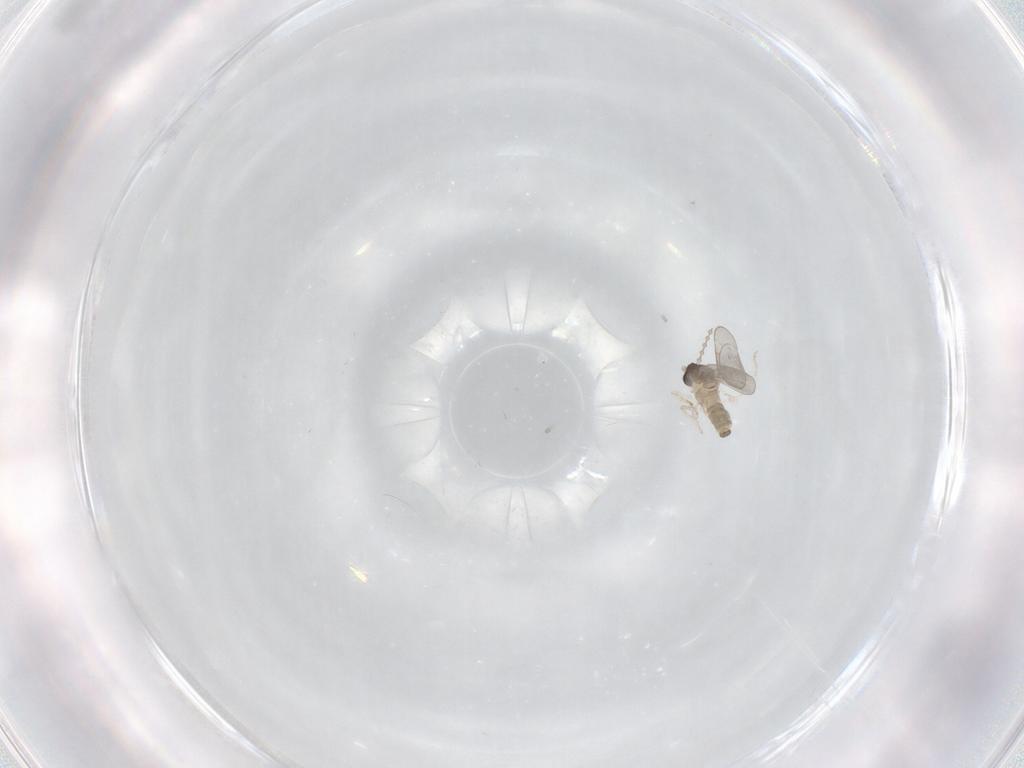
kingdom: Animalia
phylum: Arthropoda
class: Insecta
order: Diptera
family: Cecidomyiidae
